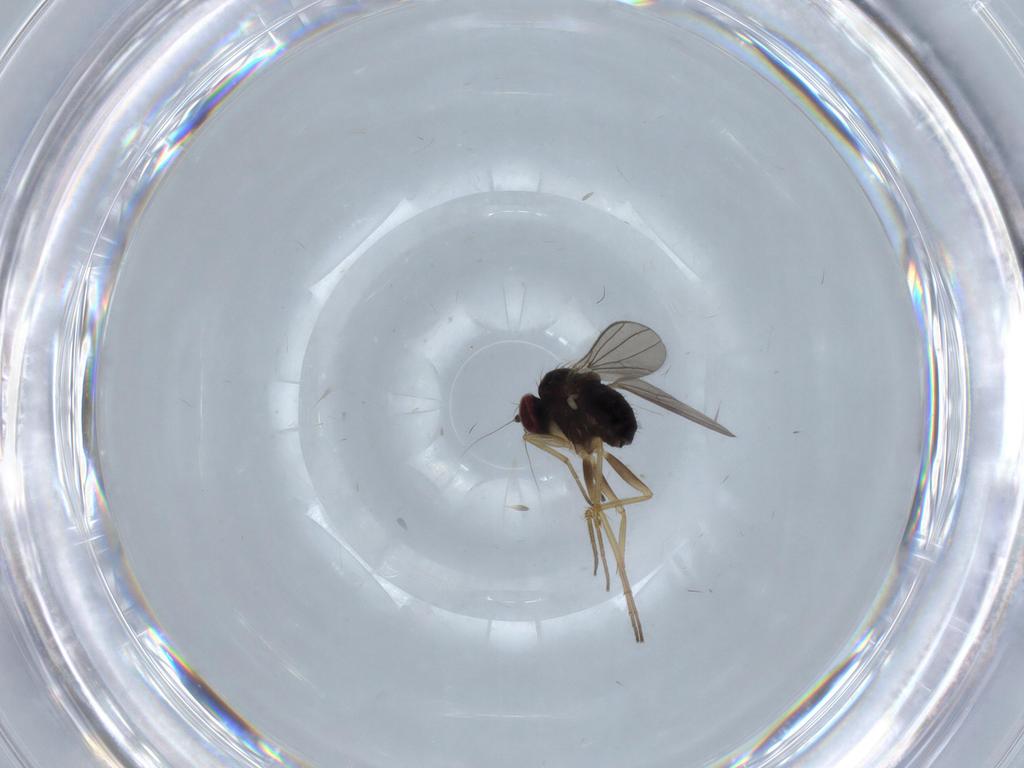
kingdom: Animalia
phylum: Arthropoda
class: Insecta
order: Diptera
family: Dolichopodidae
